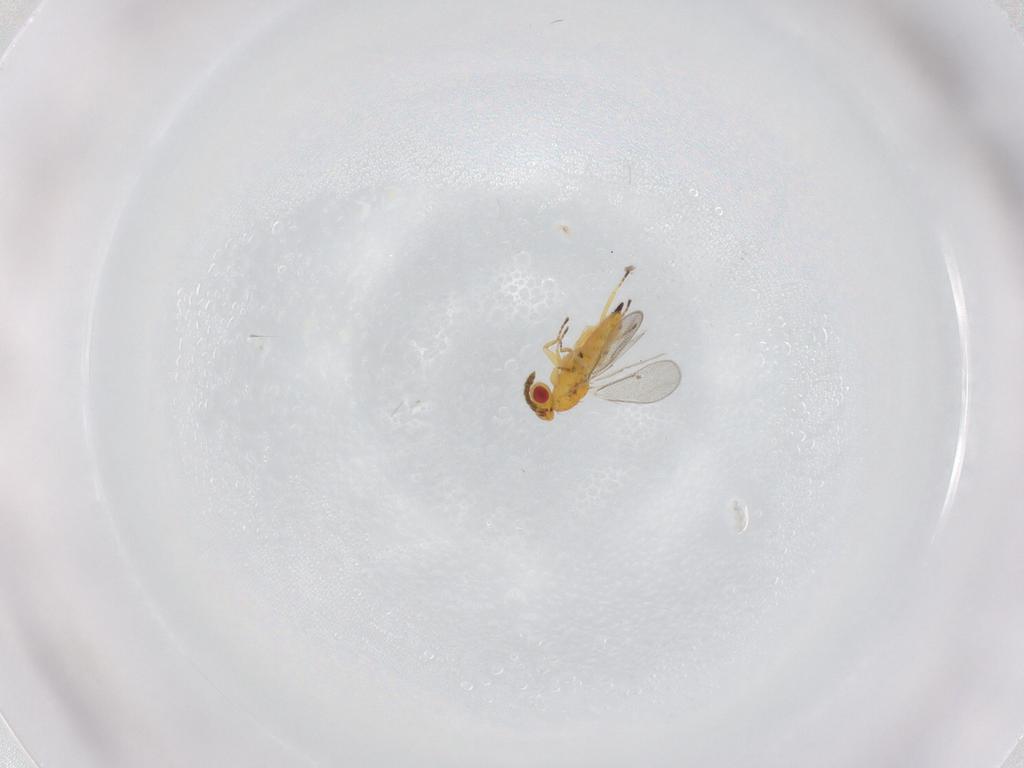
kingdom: Animalia
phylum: Arthropoda
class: Insecta
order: Hymenoptera
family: Eulophidae
